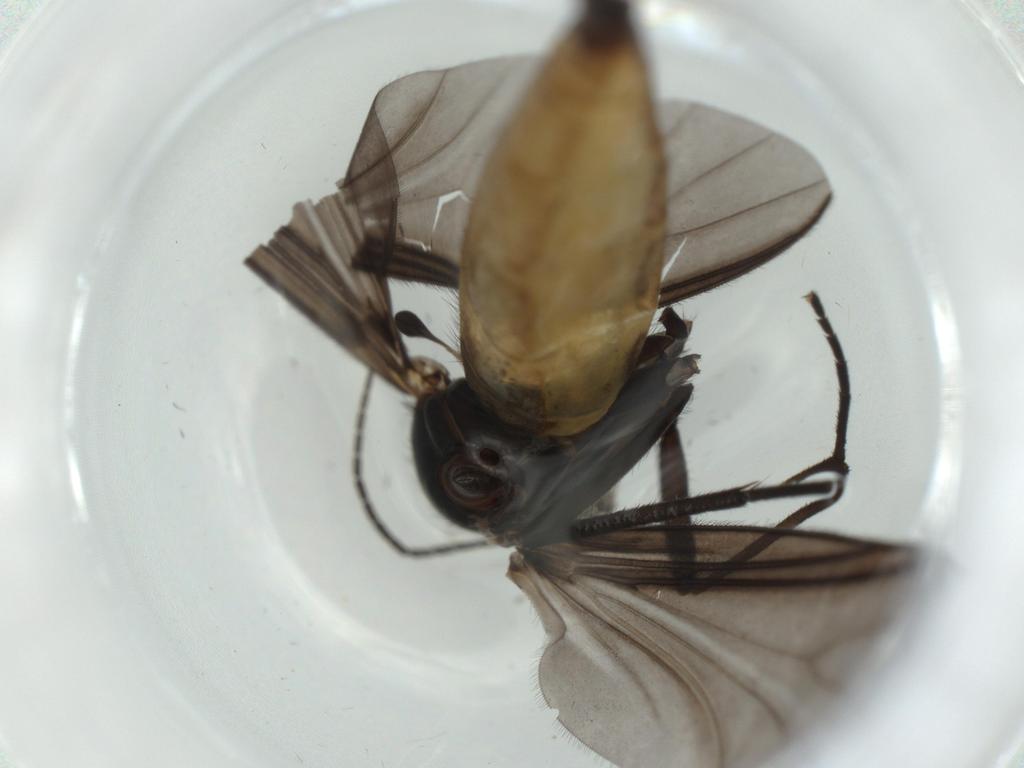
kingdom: Animalia
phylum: Arthropoda
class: Insecta
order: Diptera
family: Sciaridae
